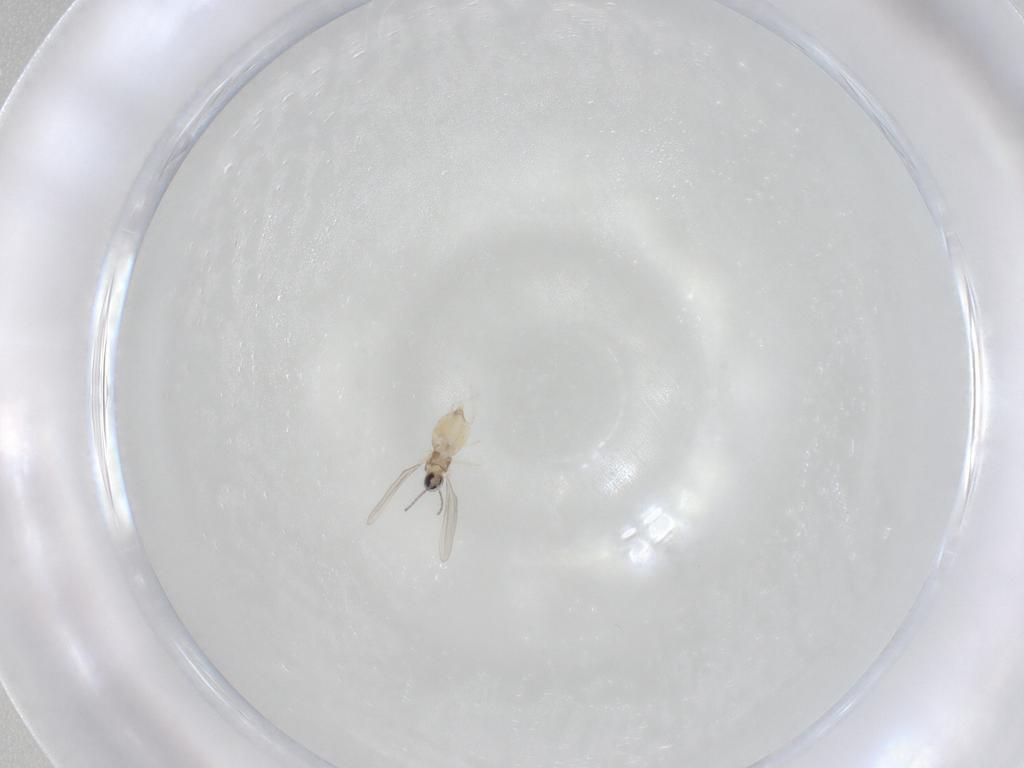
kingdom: Animalia
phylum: Arthropoda
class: Insecta
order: Diptera
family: Cecidomyiidae
